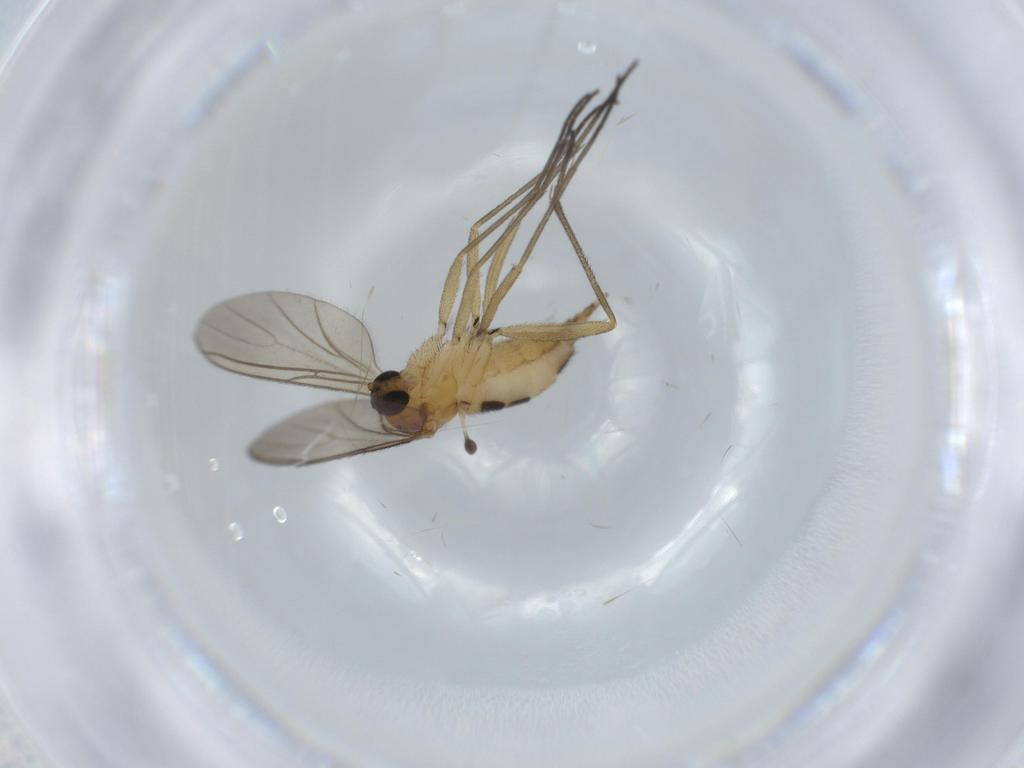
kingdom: Animalia
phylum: Arthropoda
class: Insecta
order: Diptera
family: Sciaridae
